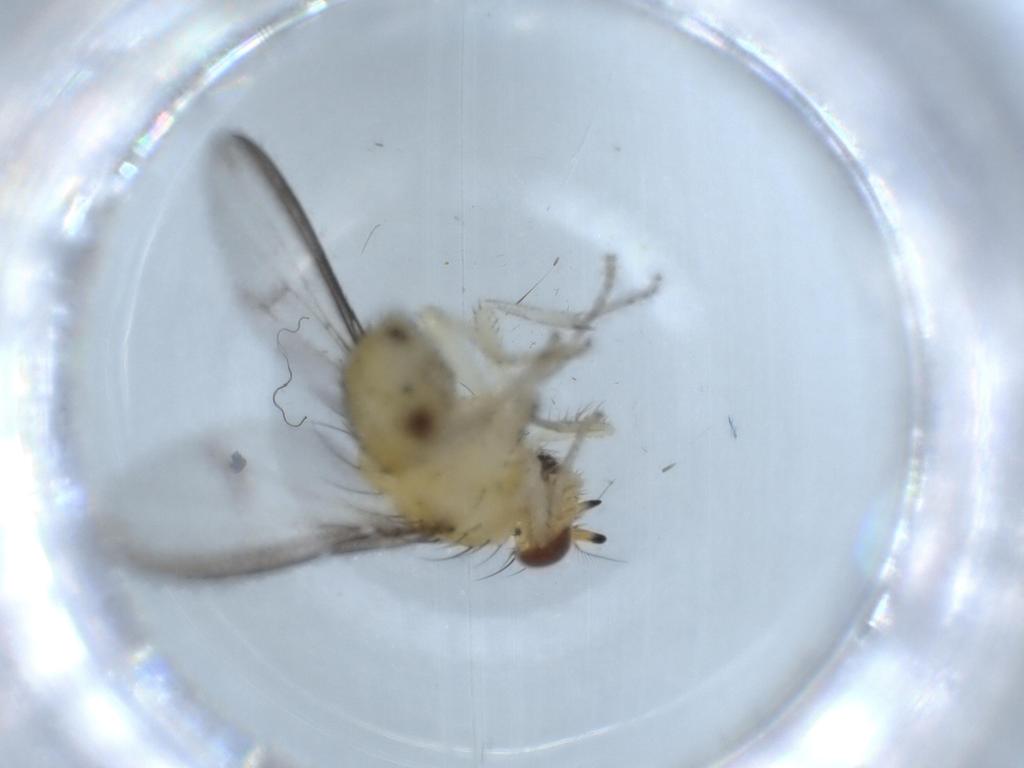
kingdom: Animalia
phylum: Arthropoda
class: Insecta
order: Diptera
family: Lauxaniidae
